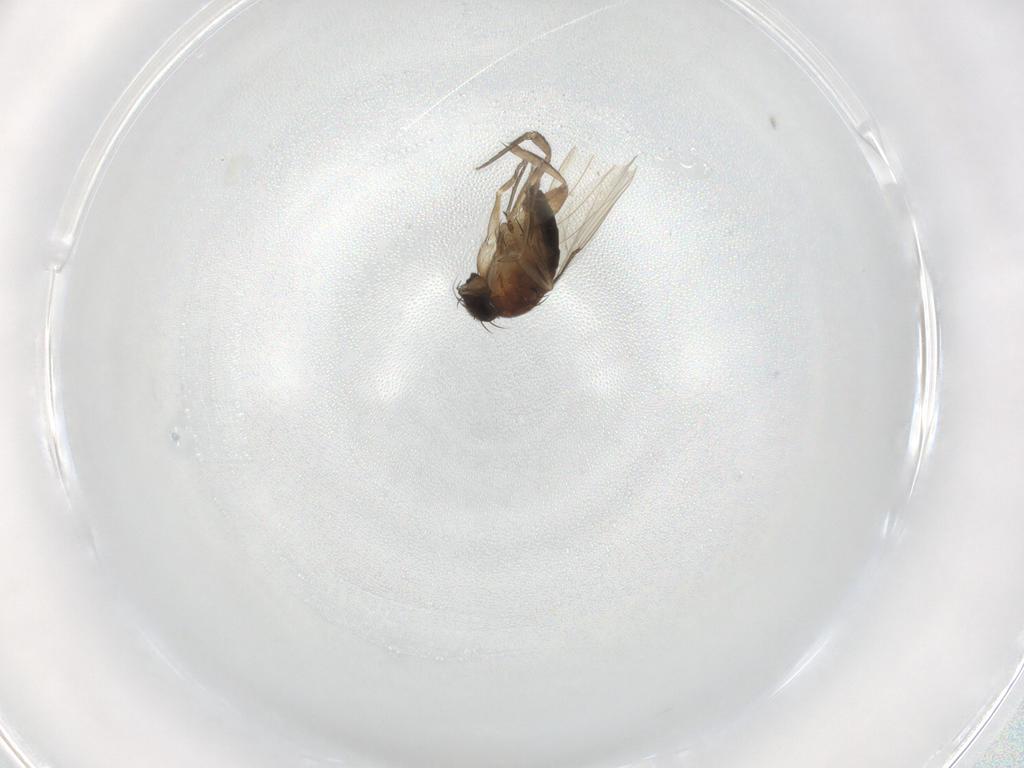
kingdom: Animalia
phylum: Arthropoda
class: Insecta
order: Diptera
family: Phoridae
